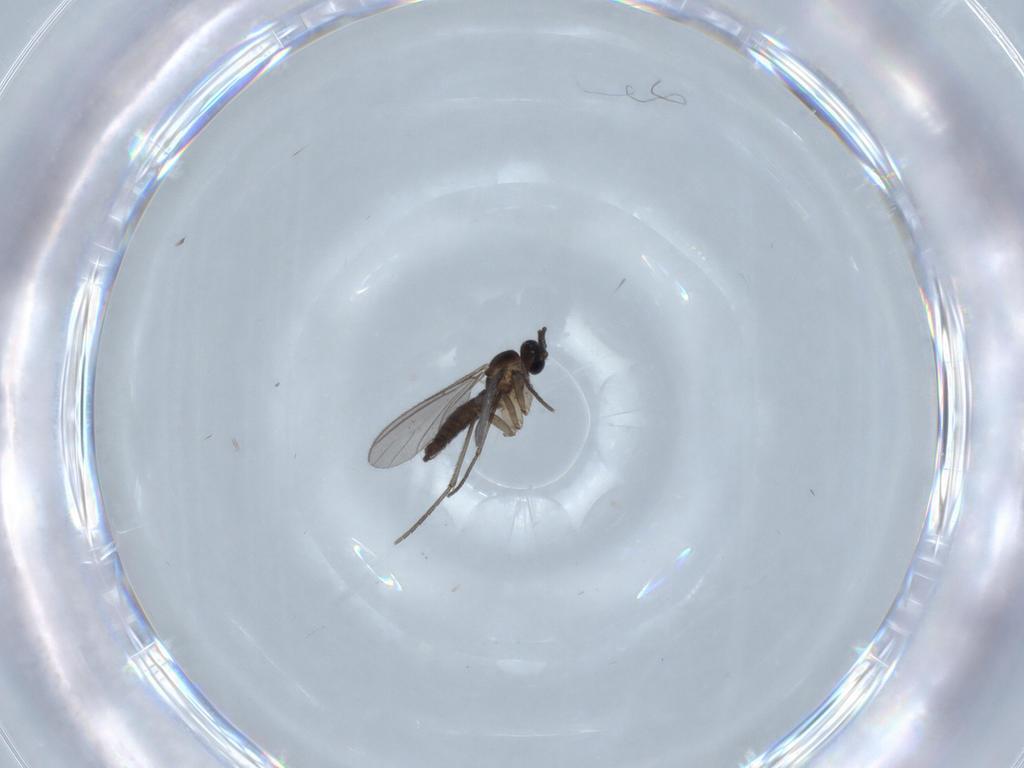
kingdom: Animalia
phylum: Arthropoda
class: Insecta
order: Diptera
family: Sciaridae
